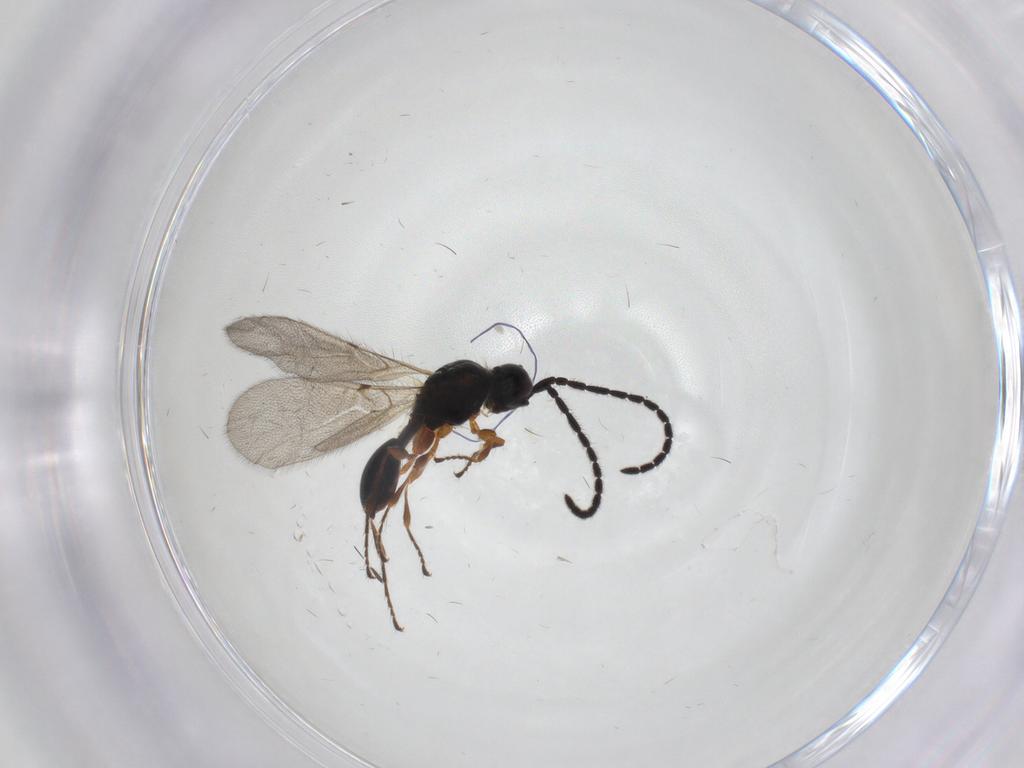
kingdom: Animalia
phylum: Arthropoda
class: Insecta
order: Hymenoptera
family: Diapriidae
